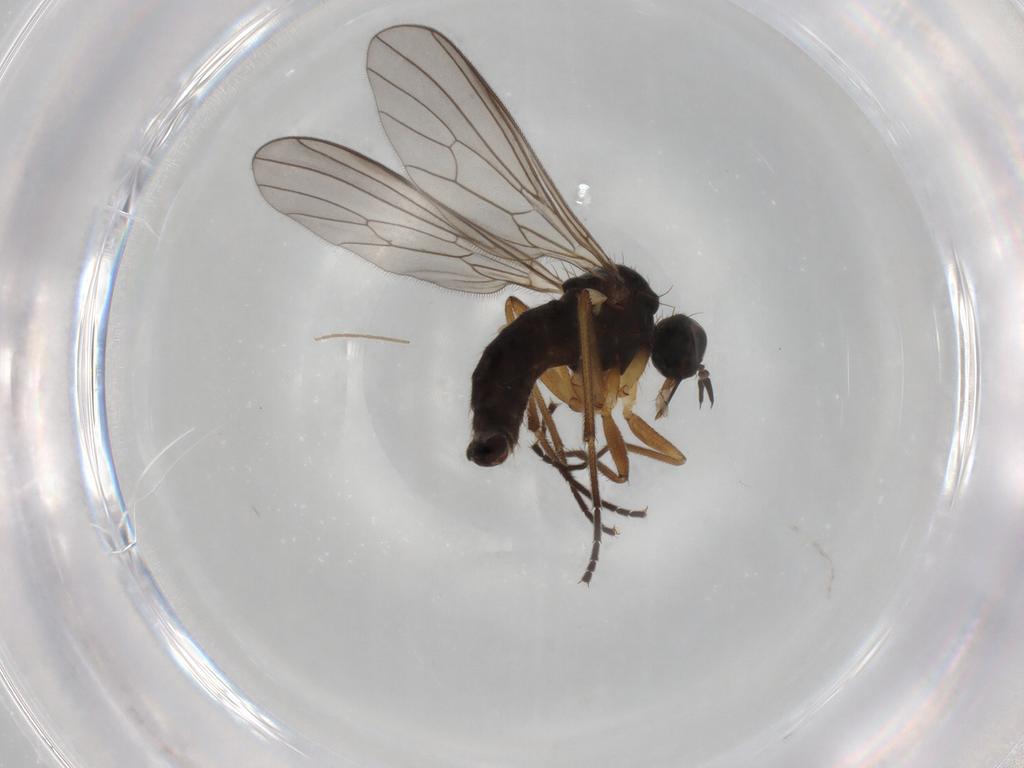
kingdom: Animalia
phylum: Arthropoda
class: Insecta
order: Diptera
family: Empididae
